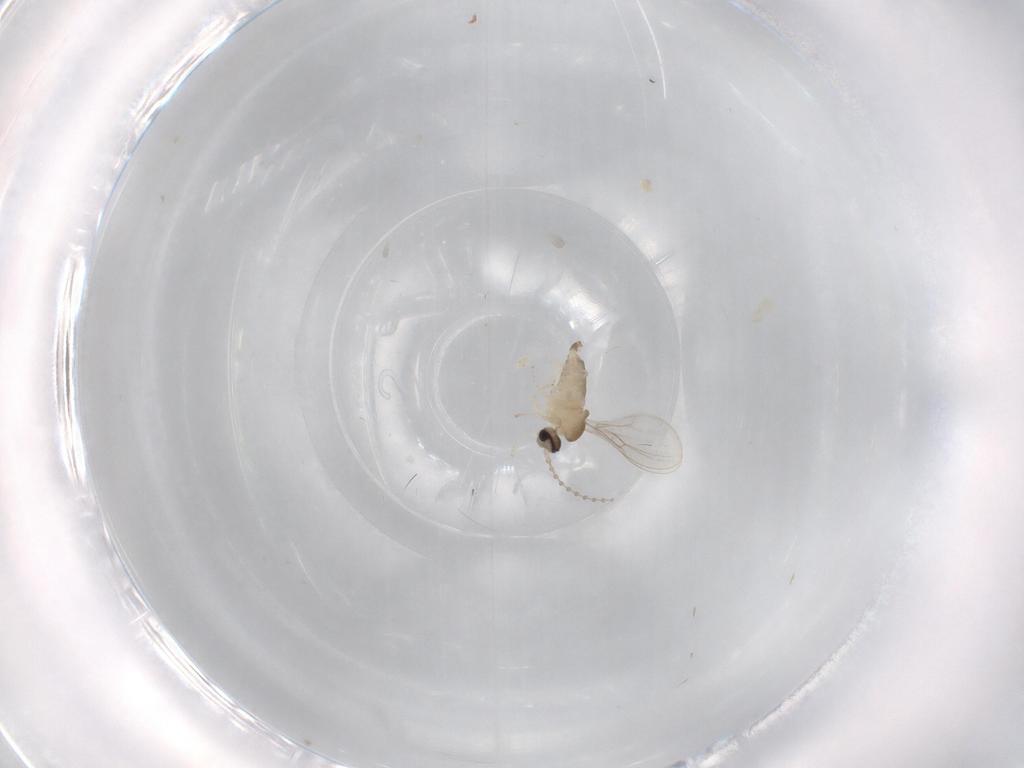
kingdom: Animalia
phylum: Arthropoda
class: Insecta
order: Diptera
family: Cecidomyiidae
